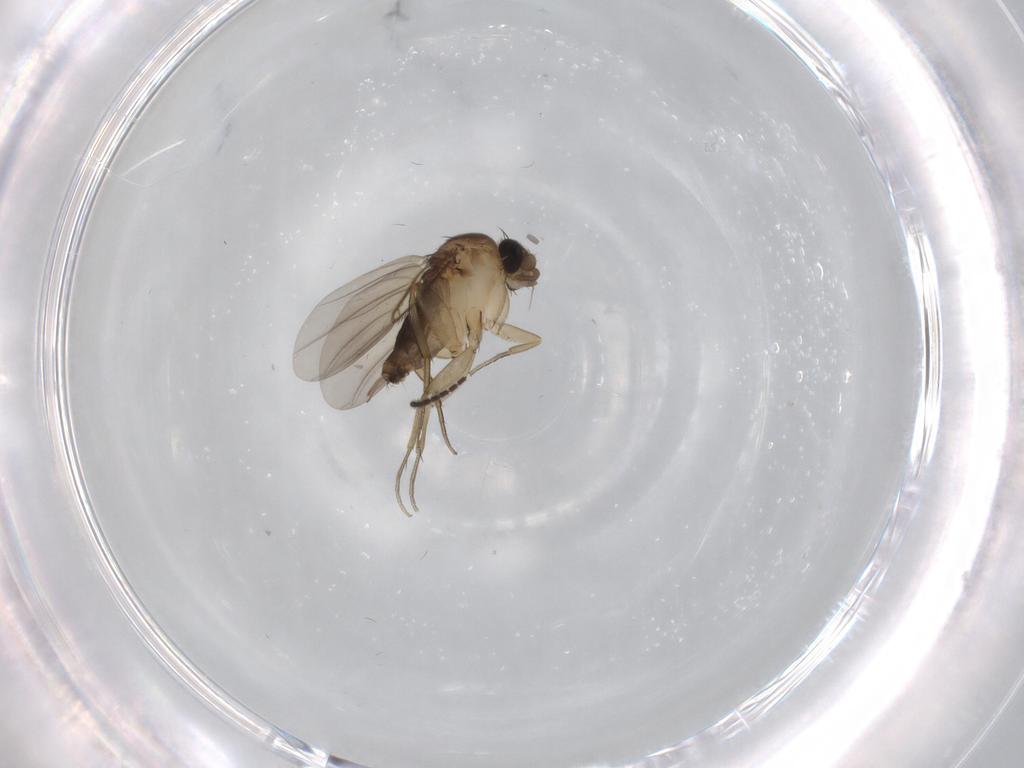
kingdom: Animalia
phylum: Arthropoda
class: Insecta
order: Diptera
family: Sciaridae
